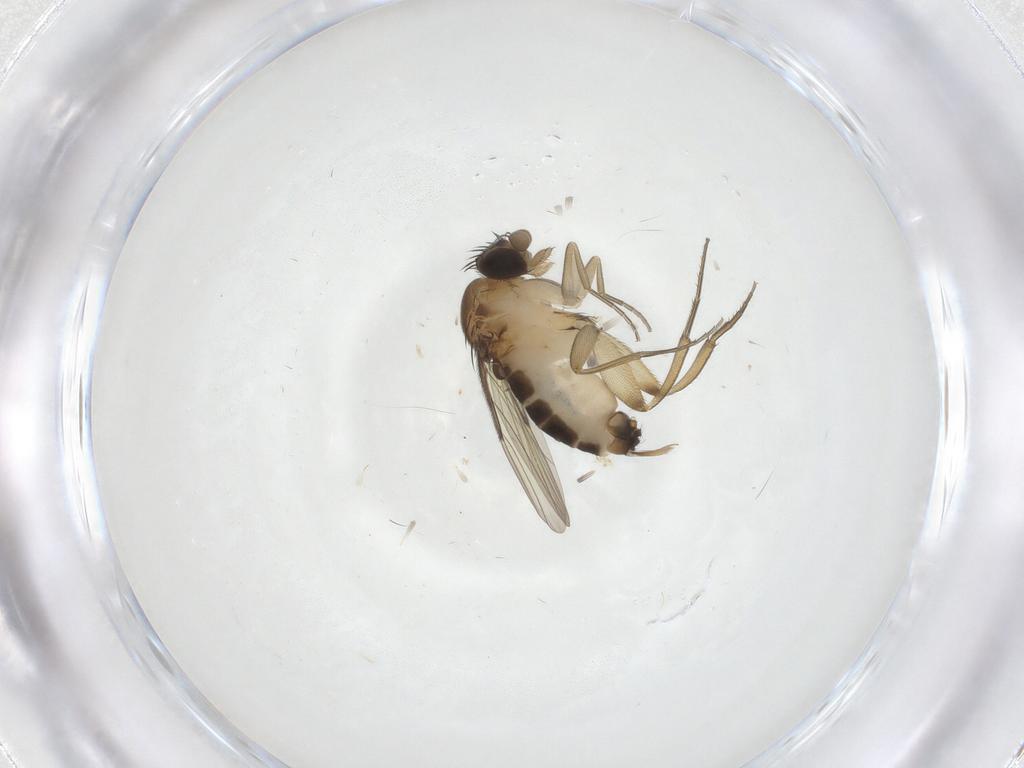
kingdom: Animalia
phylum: Arthropoda
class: Insecta
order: Diptera
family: Phoridae
